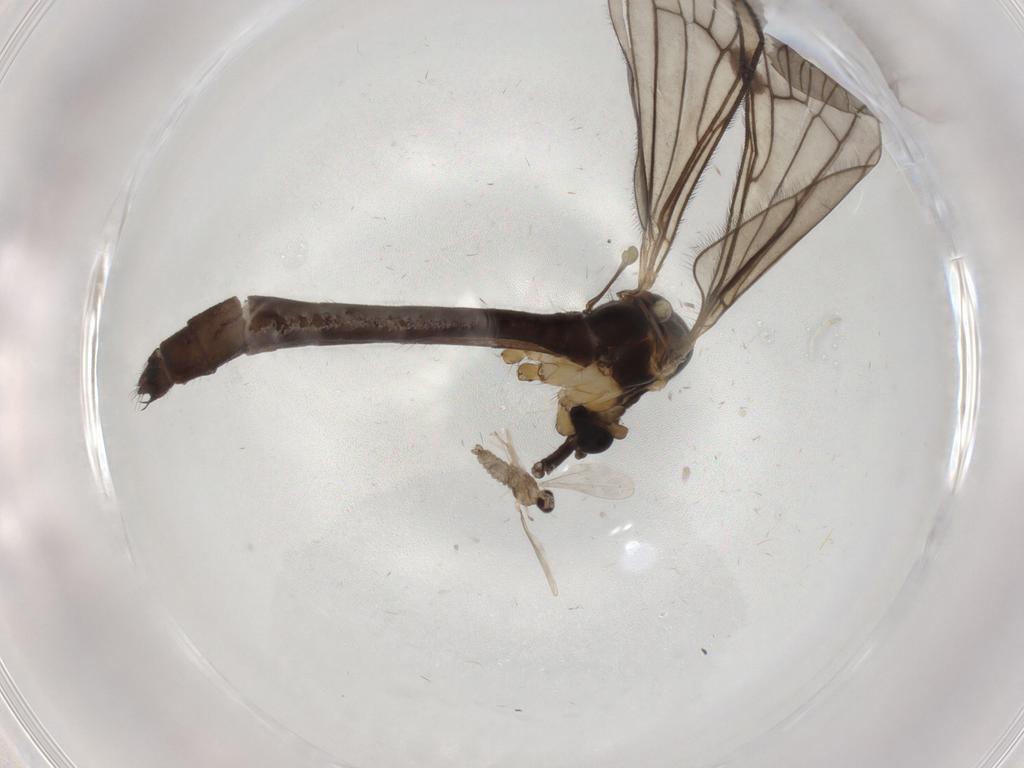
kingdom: Animalia
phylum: Arthropoda
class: Insecta
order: Diptera
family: Limoniidae
